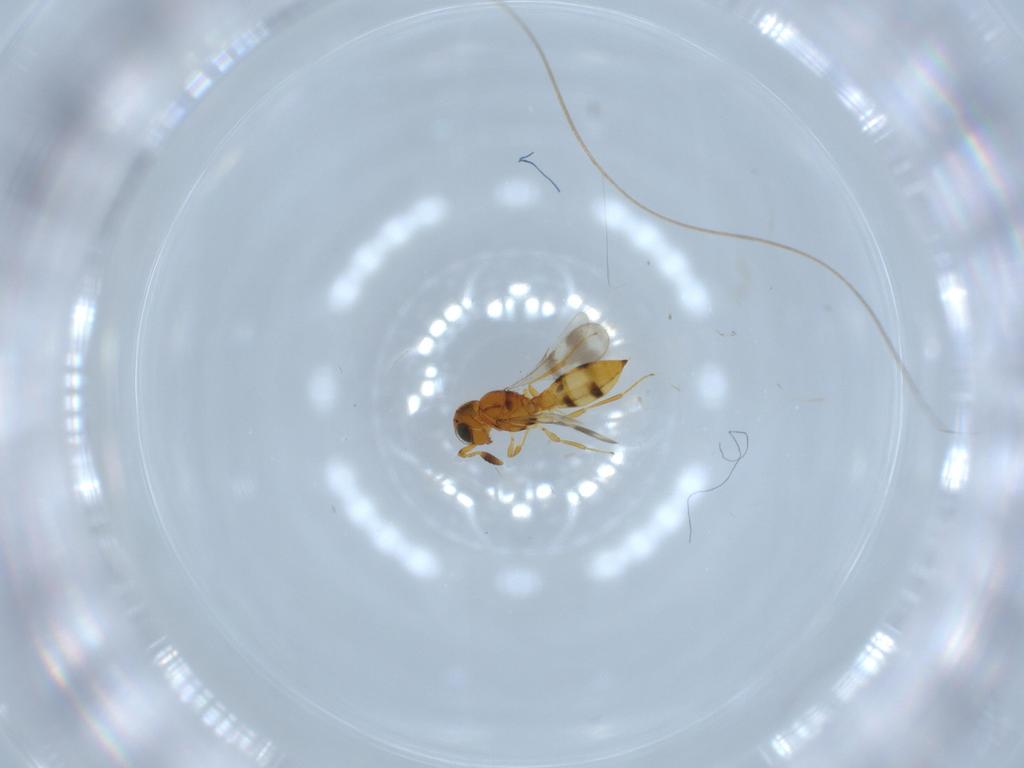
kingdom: Animalia
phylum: Arthropoda
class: Insecta
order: Hymenoptera
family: Scelionidae
